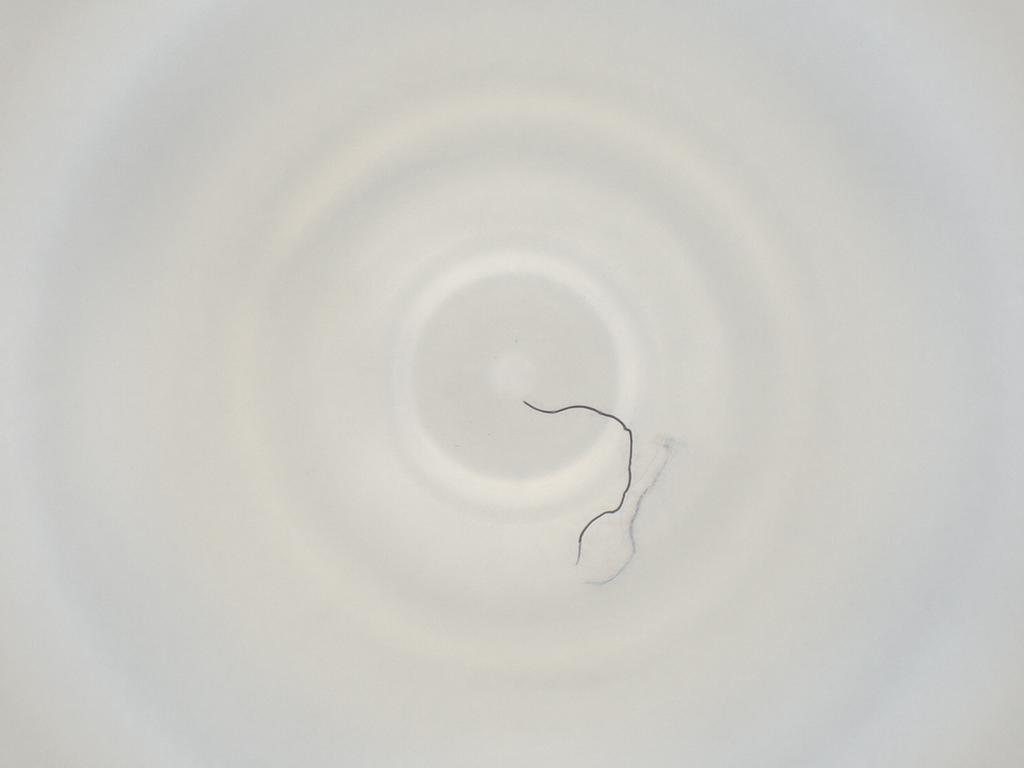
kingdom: Animalia
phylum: Arthropoda
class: Insecta
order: Diptera
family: Cecidomyiidae
